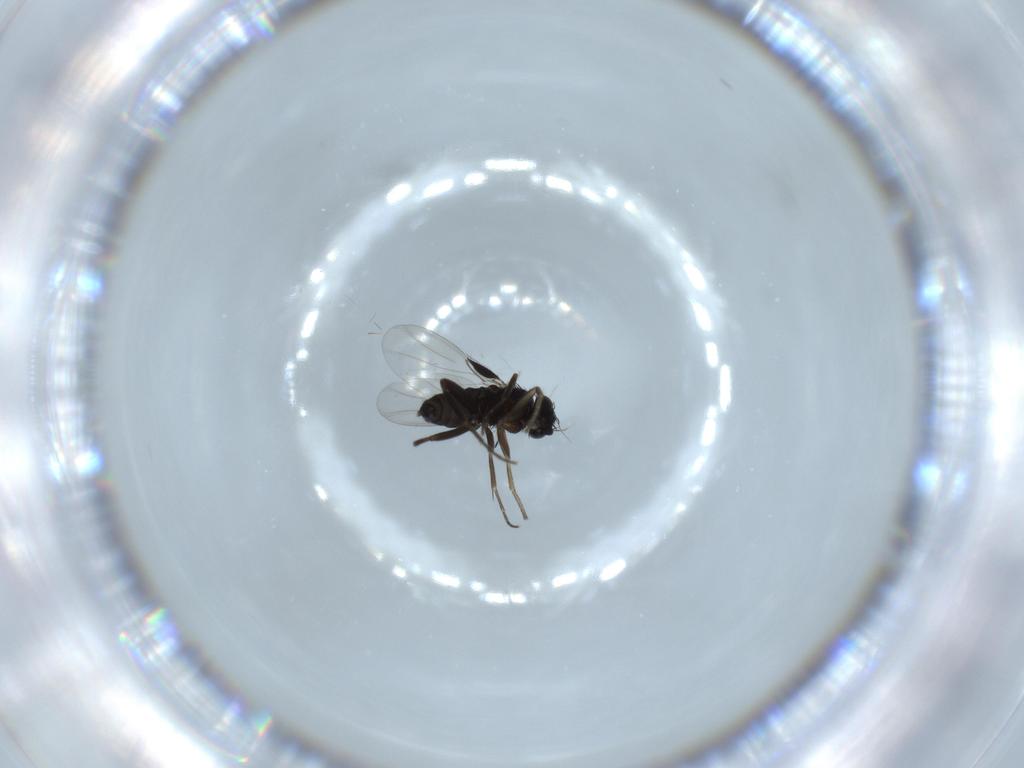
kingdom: Animalia
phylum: Arthropoda
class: Insecta
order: Diptera
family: Phoridae
